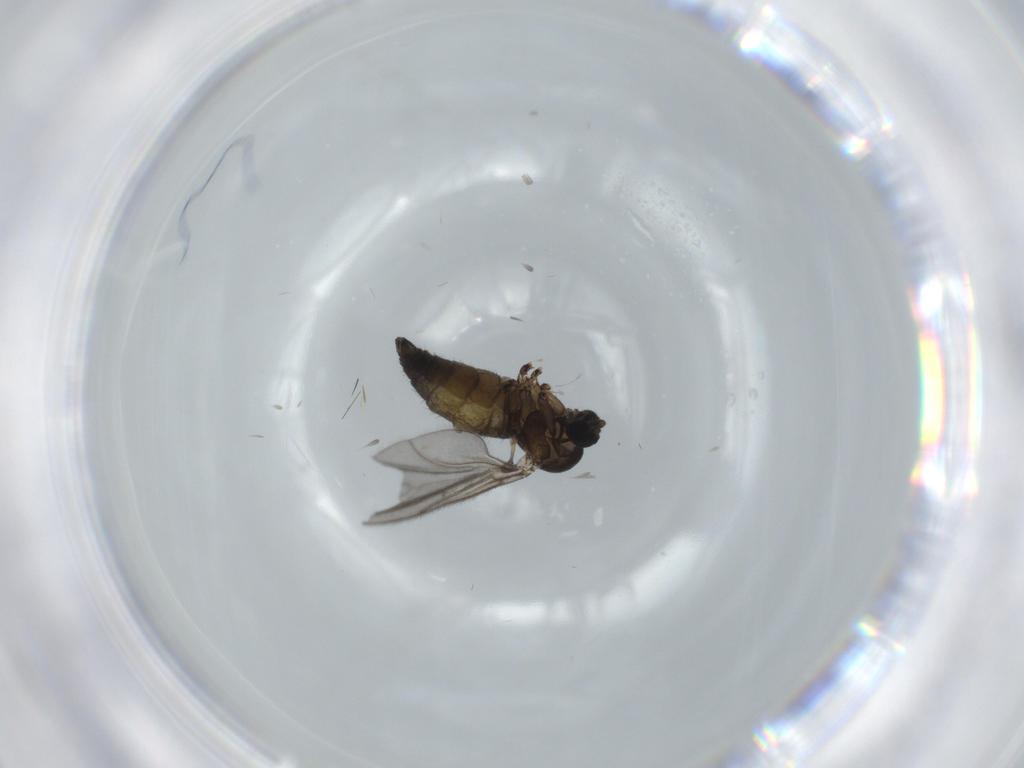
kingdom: Animalia
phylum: Arthropoda
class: Insecta
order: Diptera
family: Sciaridae
